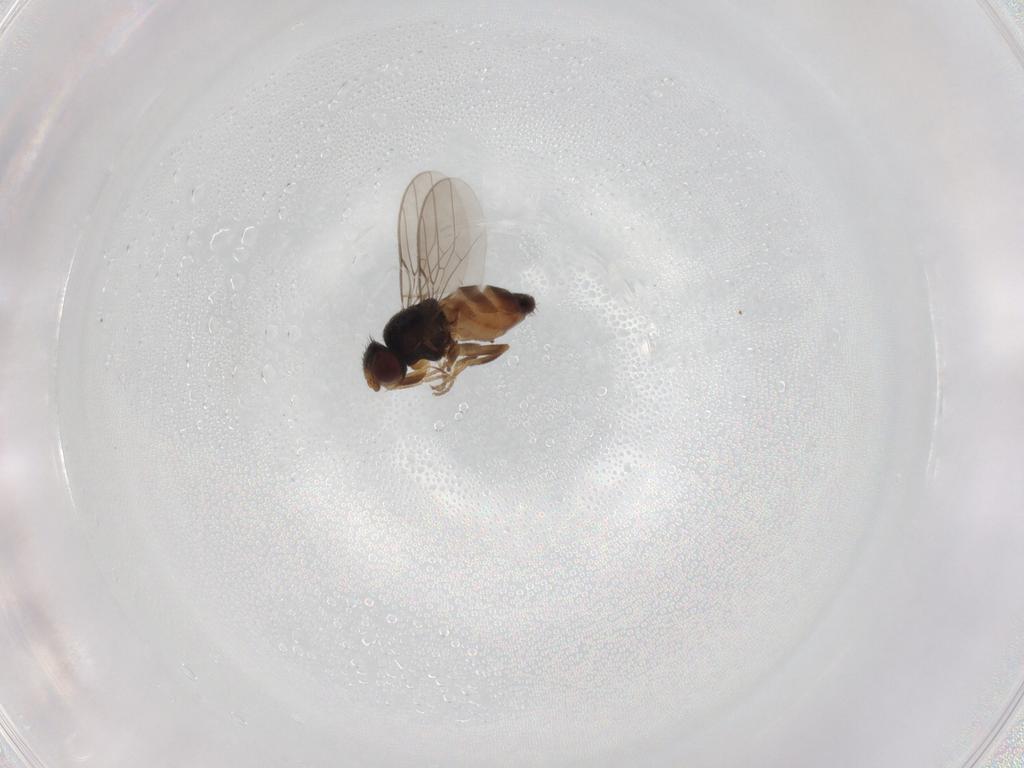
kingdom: Animalia
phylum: Arthropoda
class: Insecta
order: Diptera
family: Chloropidae
